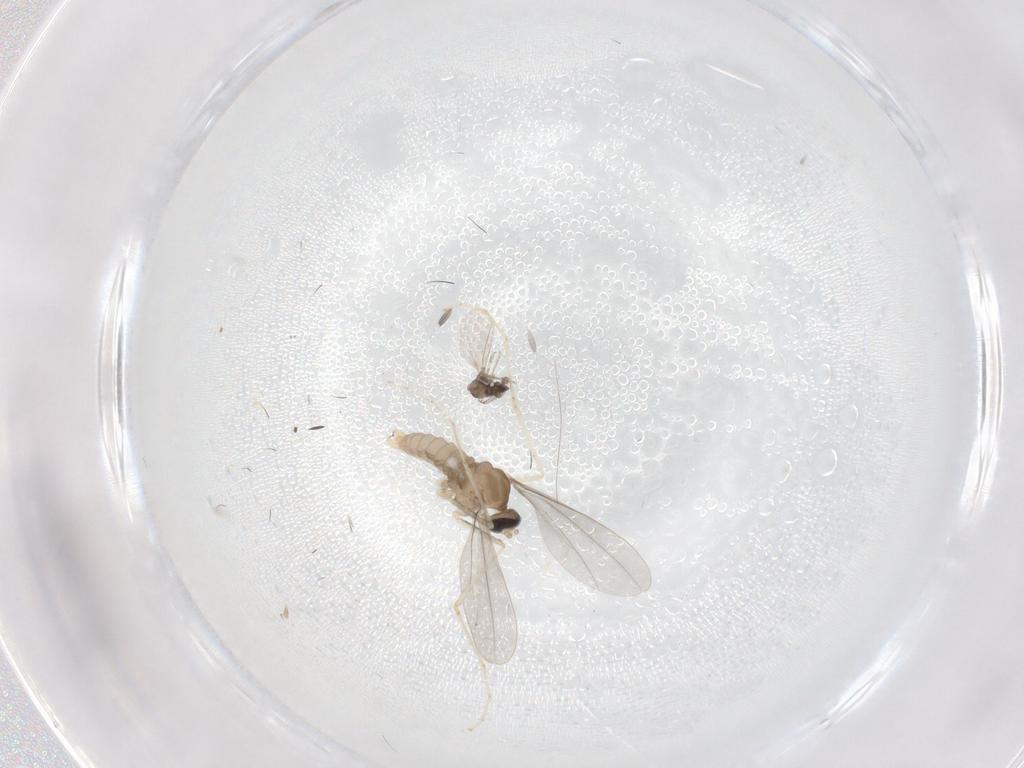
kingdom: Animalia
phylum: Arthropoda
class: Insecta
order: Diptera
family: Cecidomyiidae
